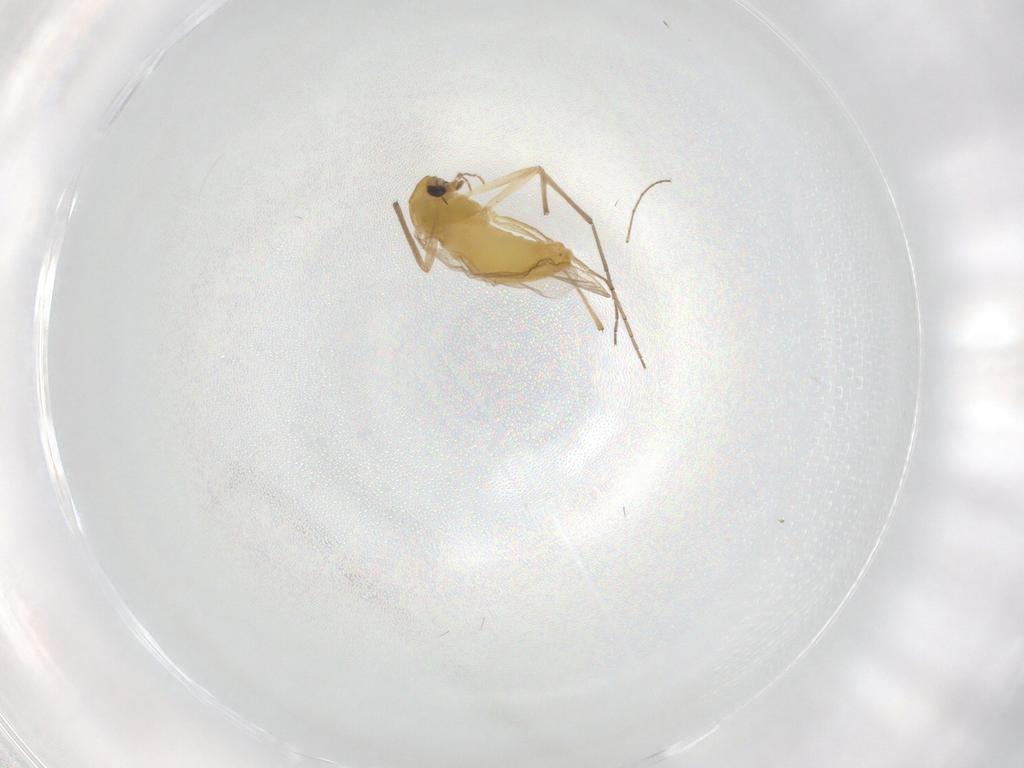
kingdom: Animalia
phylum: Arthropoda
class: Insecta
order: Diptera
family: Chironomidae
